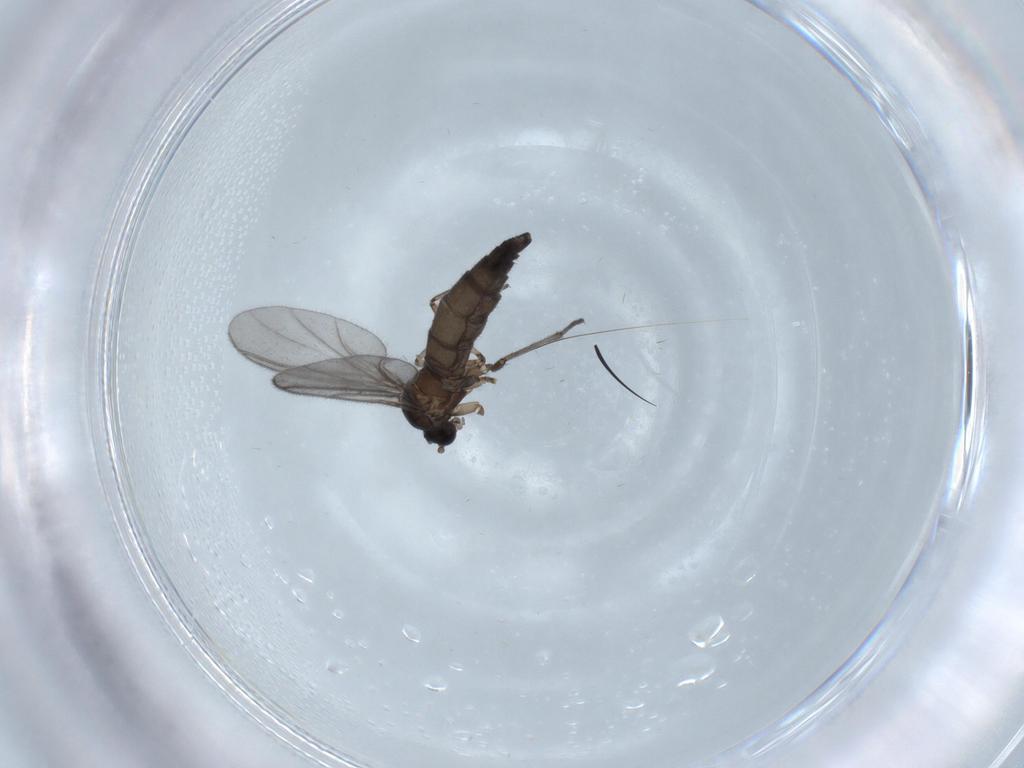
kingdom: Animalia
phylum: Arthropoda
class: Insecta
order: Diptera
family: Sciaridae
